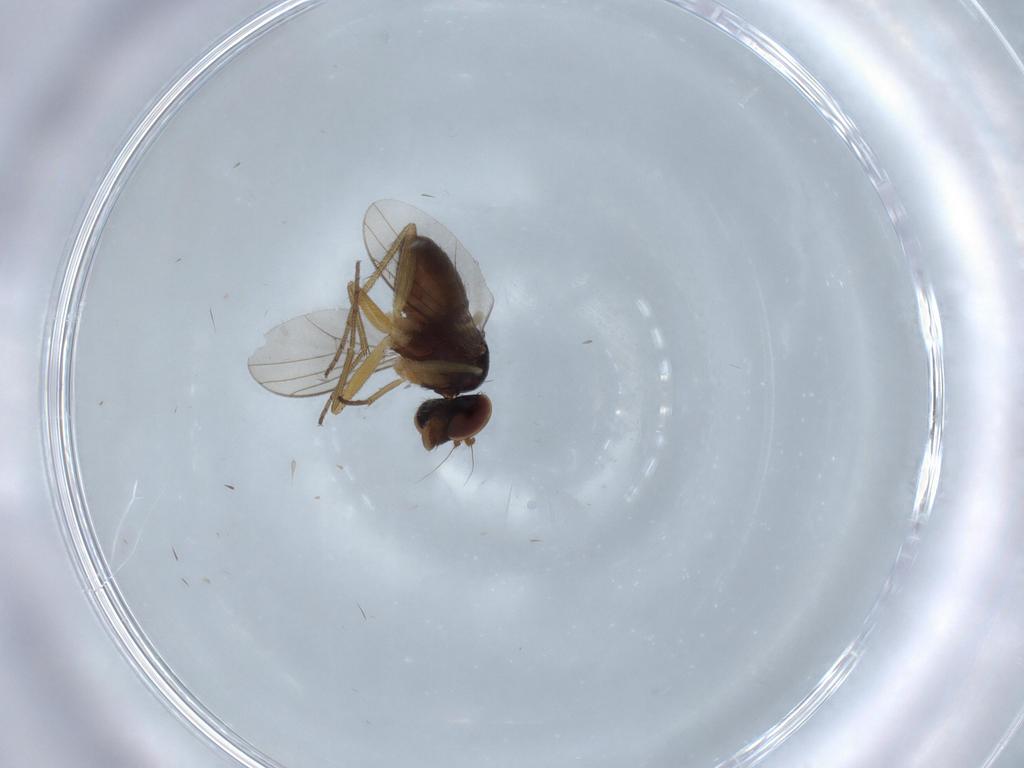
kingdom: Animalia
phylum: Arthropoda
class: Insecta
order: Diptera
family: Dolichopodidae
